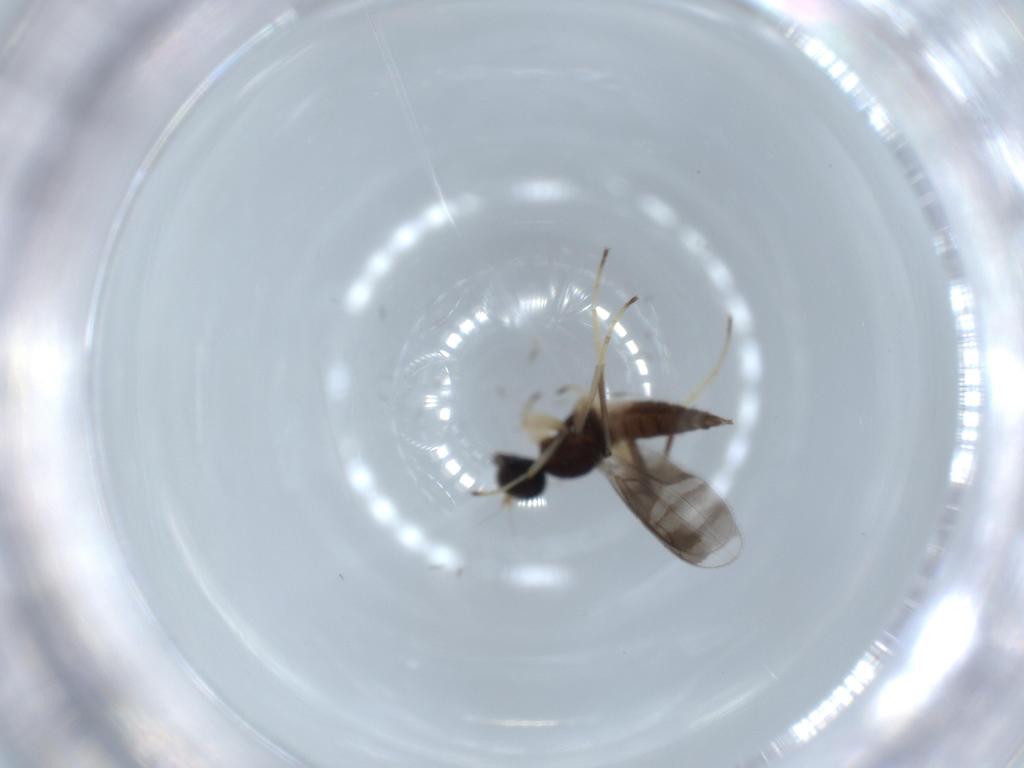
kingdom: Animalia
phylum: Arthropoda
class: Insecta
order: Diptera
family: Hybotidae
